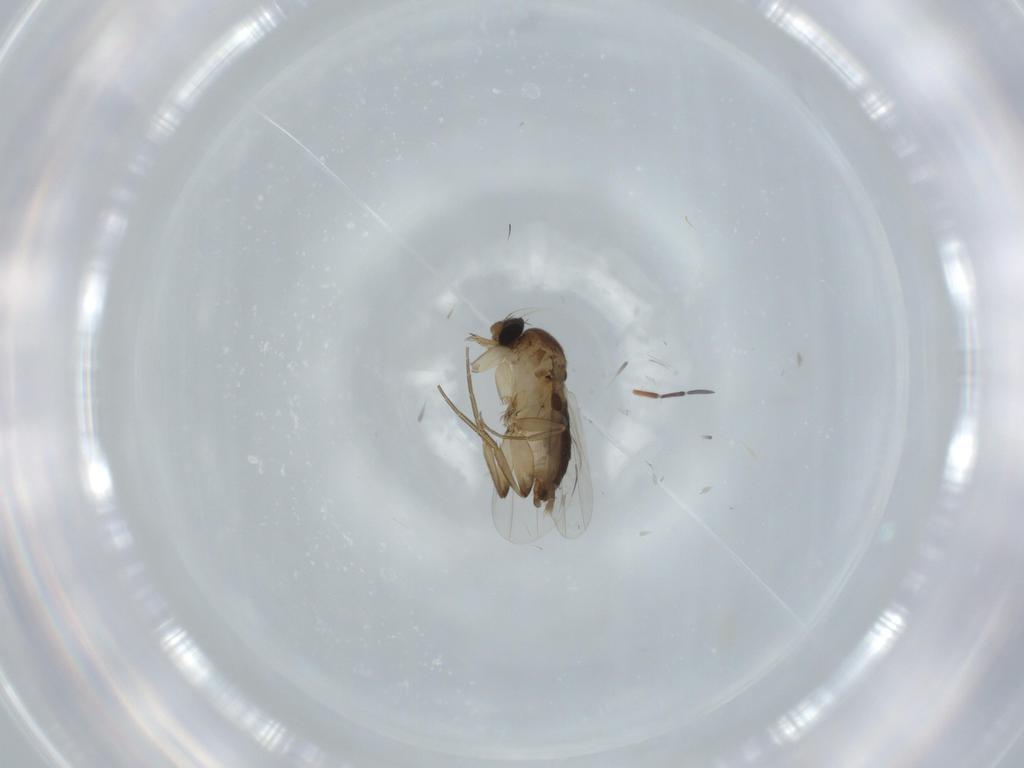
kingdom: Animalia
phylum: Arthropoda
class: Insecta
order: Diptera
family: Phoridae
